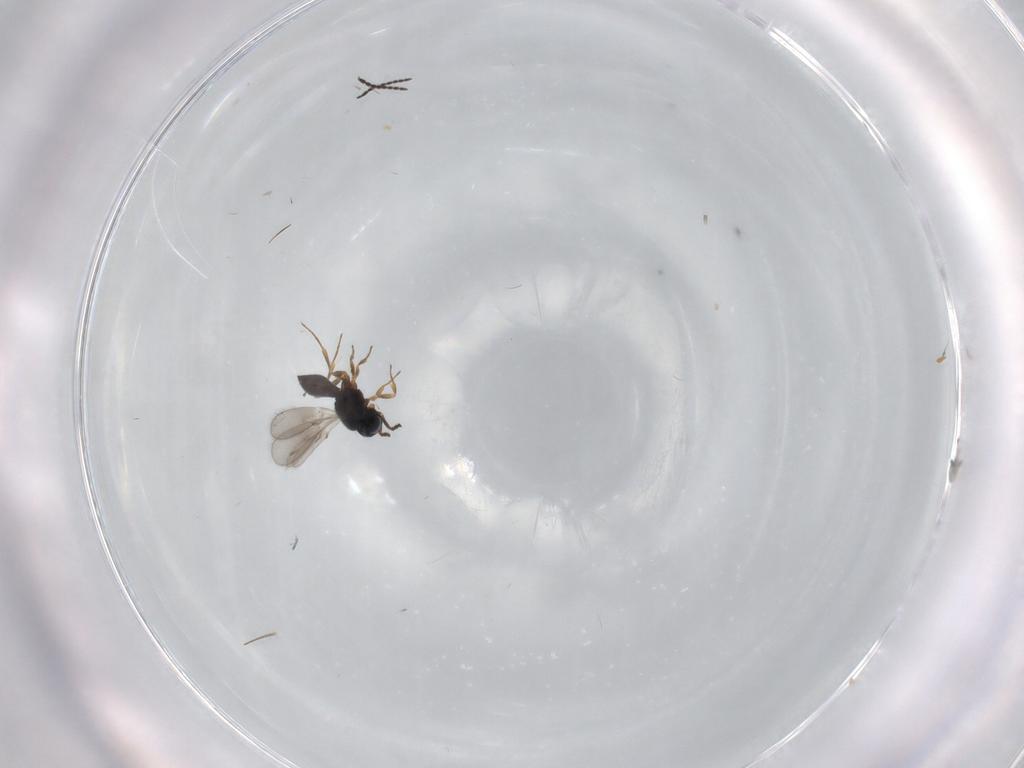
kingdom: Animalia
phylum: Arthropoda
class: Insecta
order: Hymenoptera
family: Scelionidae
